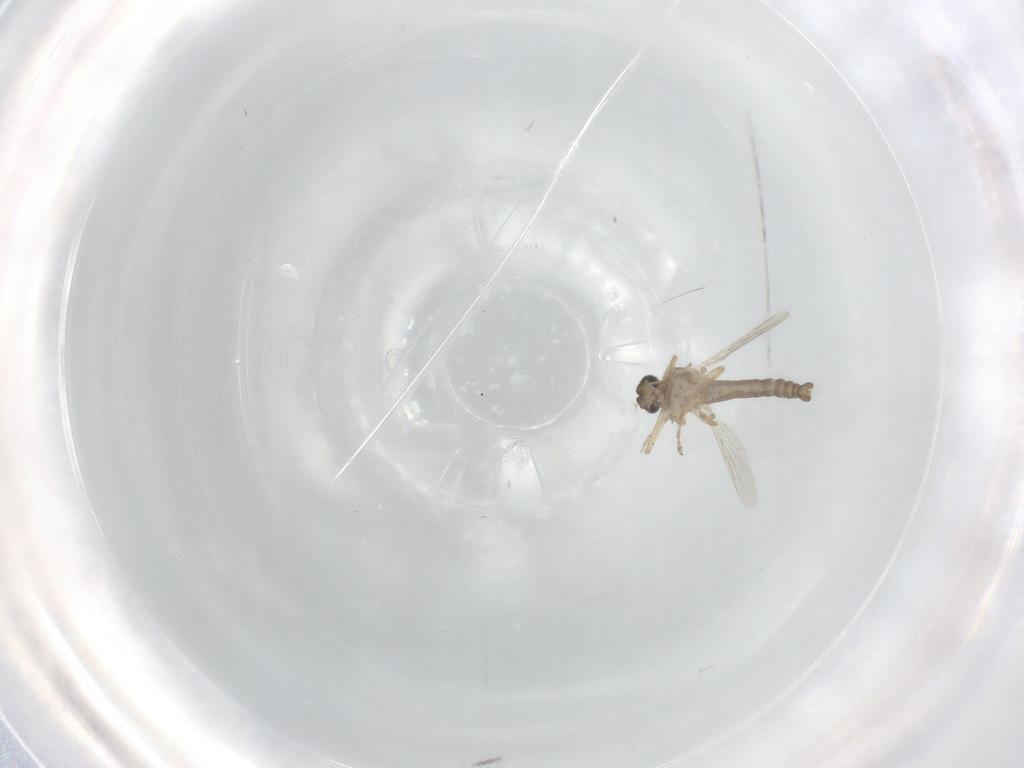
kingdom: Animalia
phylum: Arthropoda
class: Insecta
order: Diptera
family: Ceratopogonidae
